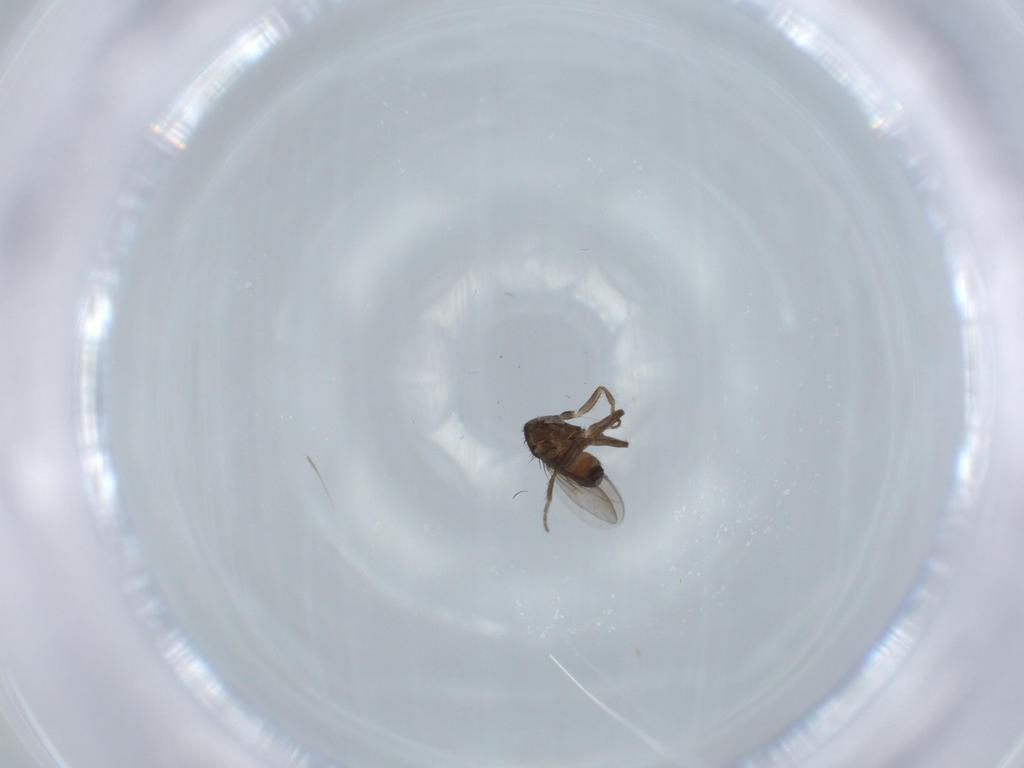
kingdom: Animalia
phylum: Arthropoda
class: Insecta
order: Diptera
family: Sphaeroceridae
